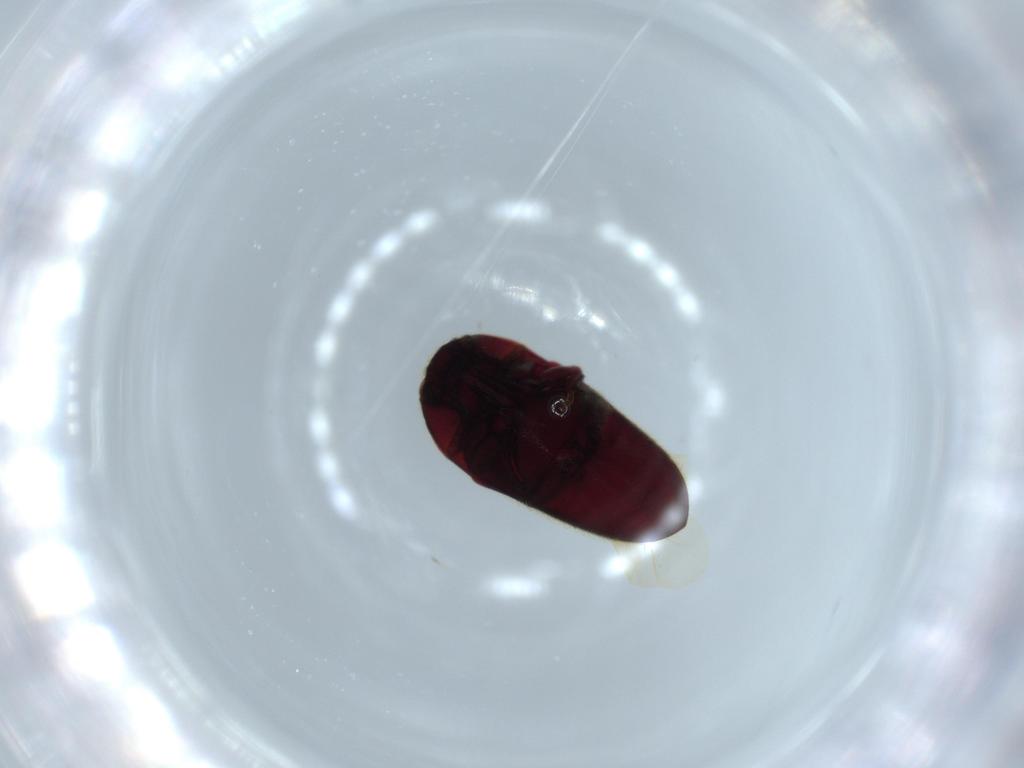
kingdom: Animalia
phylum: Arthropoda
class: Insecta
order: Coleoptera
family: Throscidae
